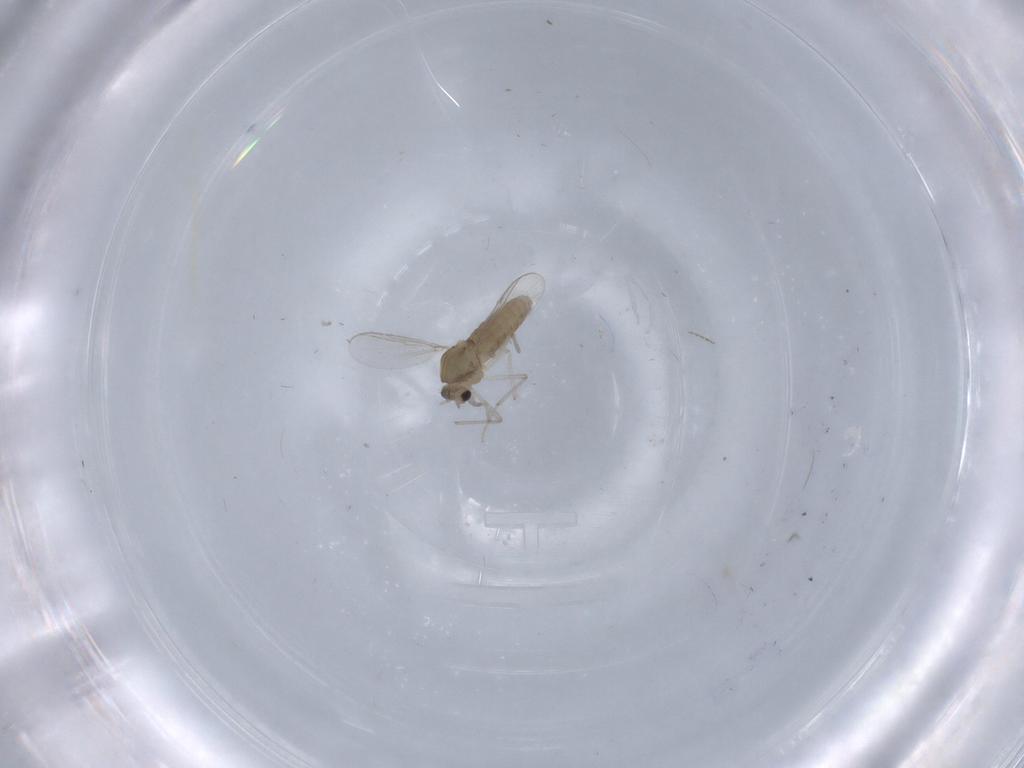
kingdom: Animalia
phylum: Arthropoda
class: Insecta
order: Diptera
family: Chironomidae
